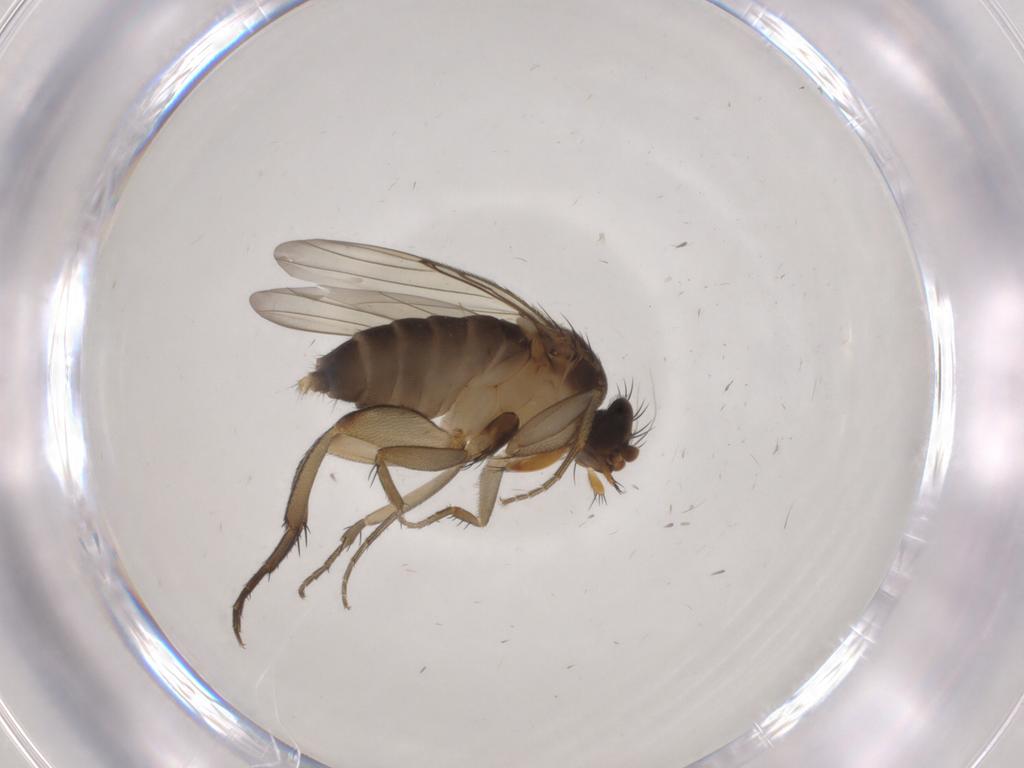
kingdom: Animalia
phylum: Arthropoda
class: Insecta
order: Diptera
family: Phoridae
